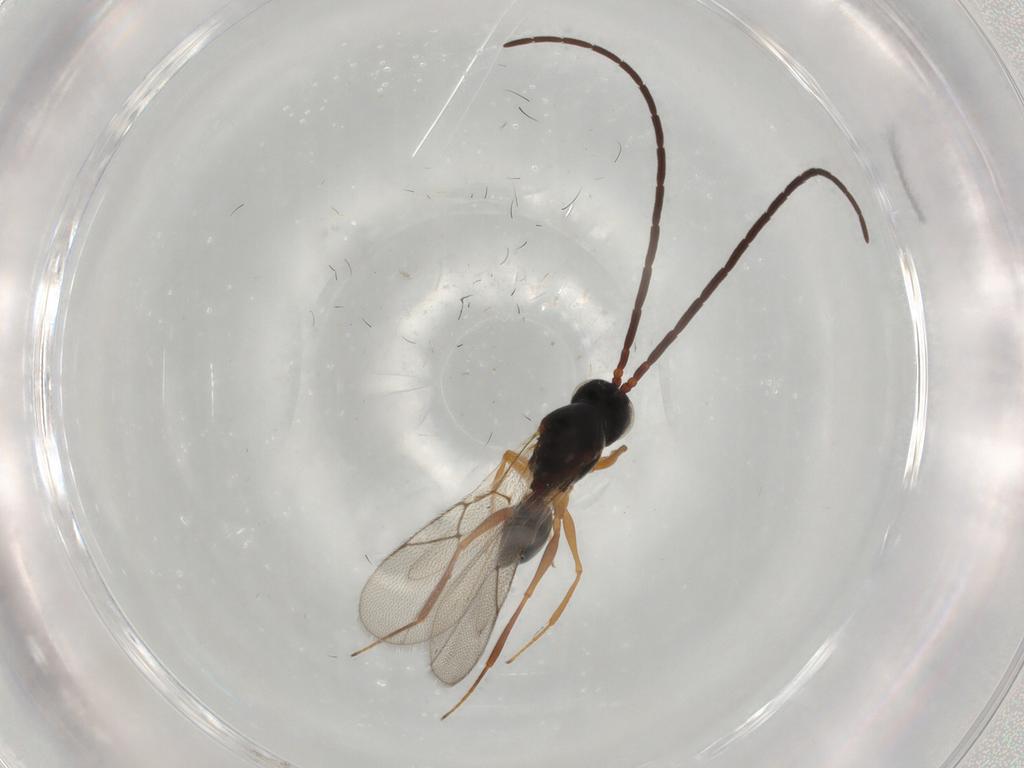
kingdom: Animalia
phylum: Arthropoda
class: Insecta
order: Hymenoptera
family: Figitidae
